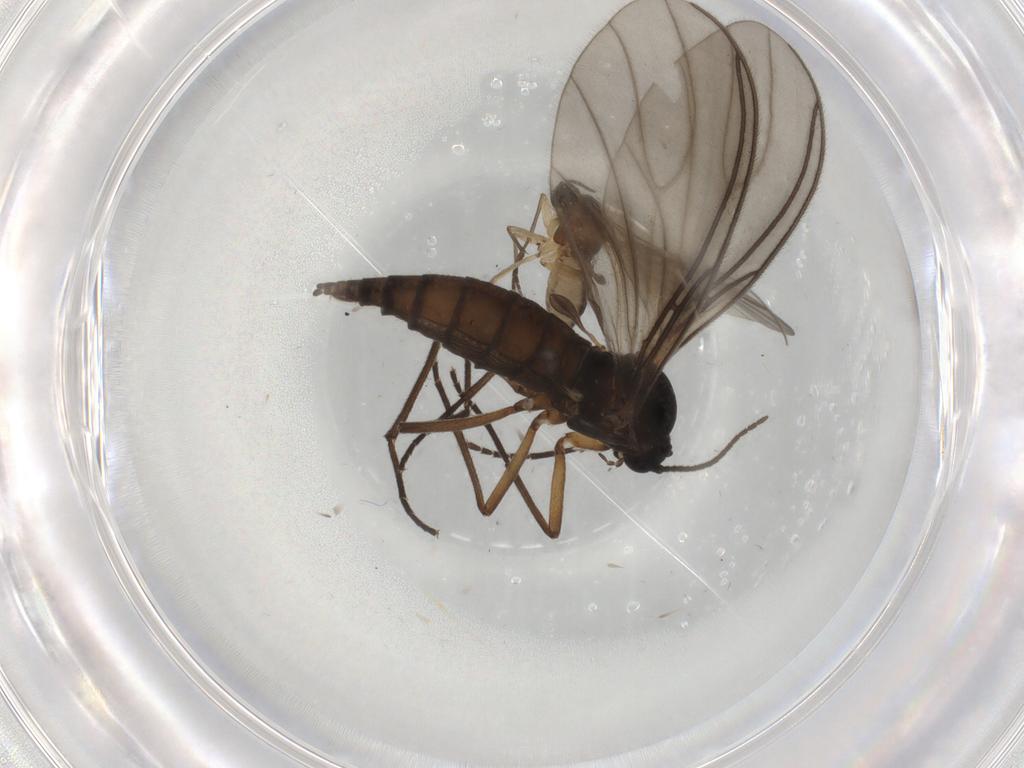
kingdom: Animalia
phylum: Arthropoda
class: Insecta
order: Diptera
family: Sciaridae
